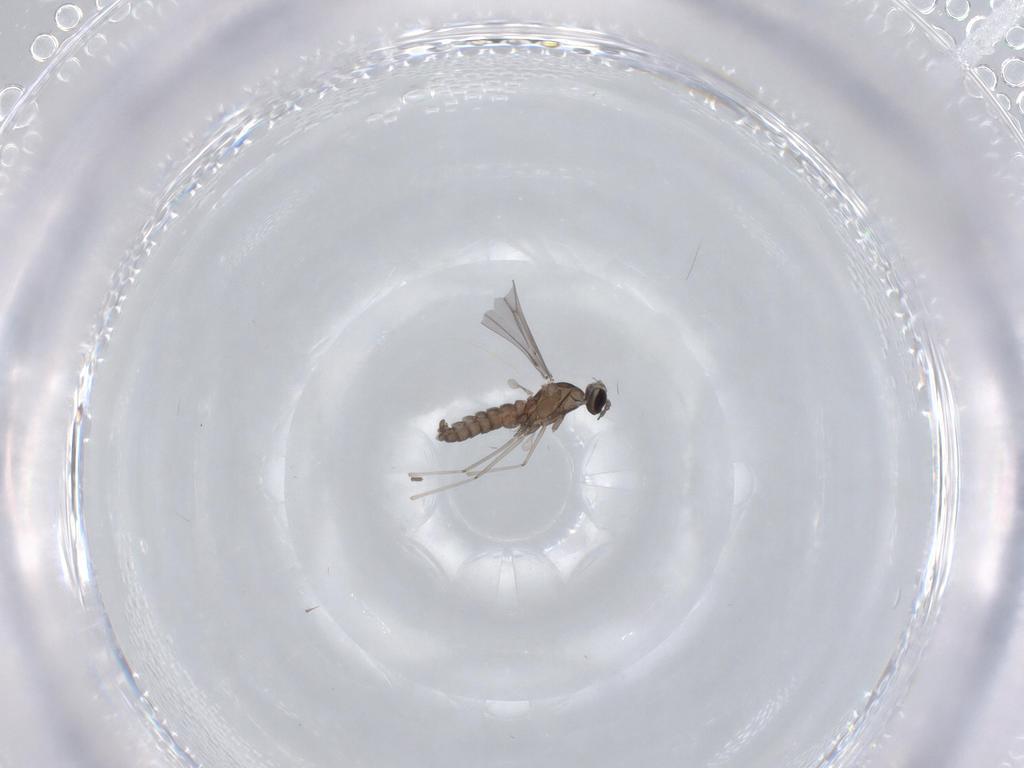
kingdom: Animalia
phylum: Arthropoda
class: Insecta
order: Diptera
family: Cecidomyiidae
